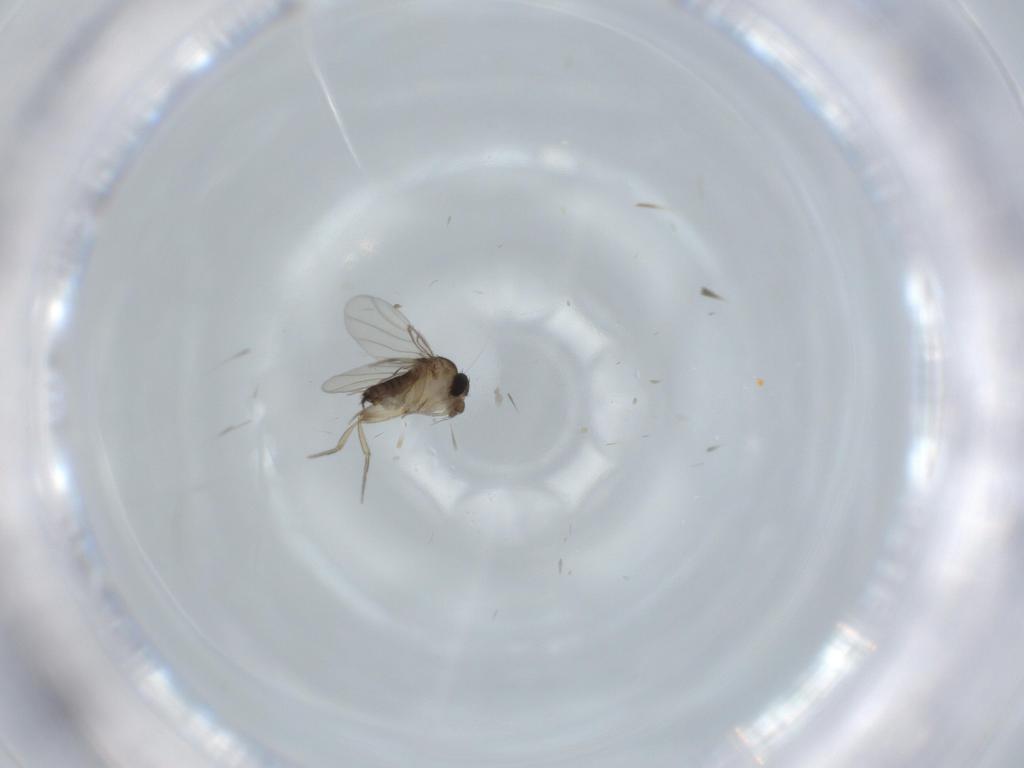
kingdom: Animalia
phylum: Arthropoda
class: Insecta
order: Diptera
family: Phoridae
